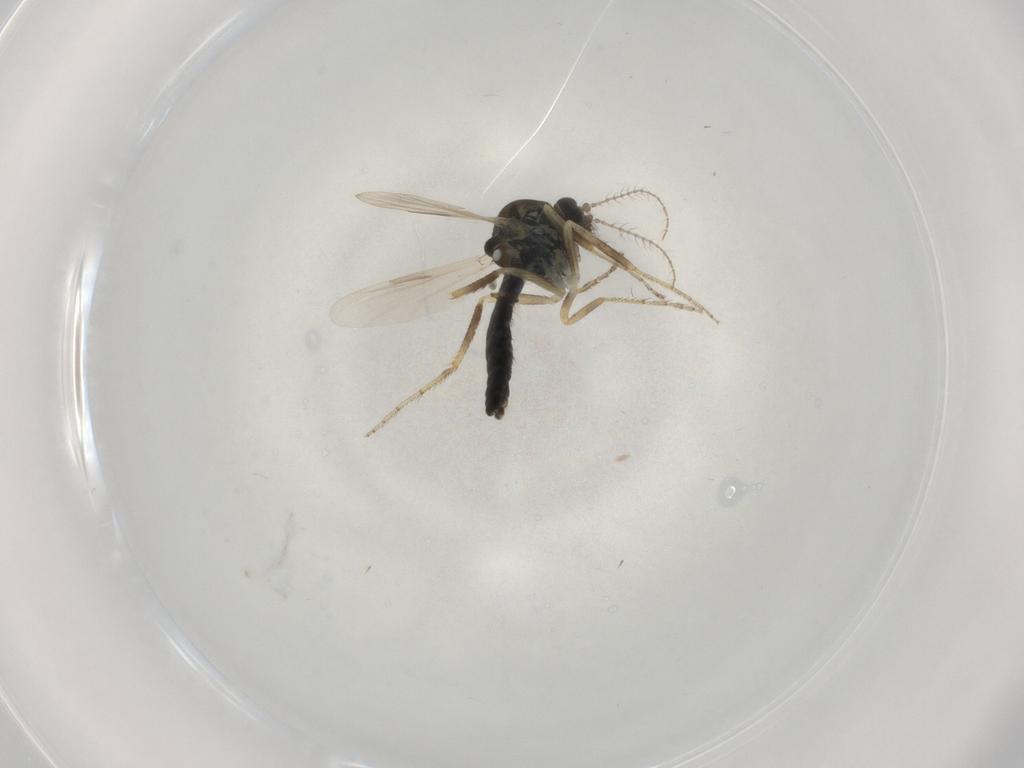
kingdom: Animalia
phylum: Arthropoda
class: Insecta
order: Diptera
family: Ceratopogonidae
